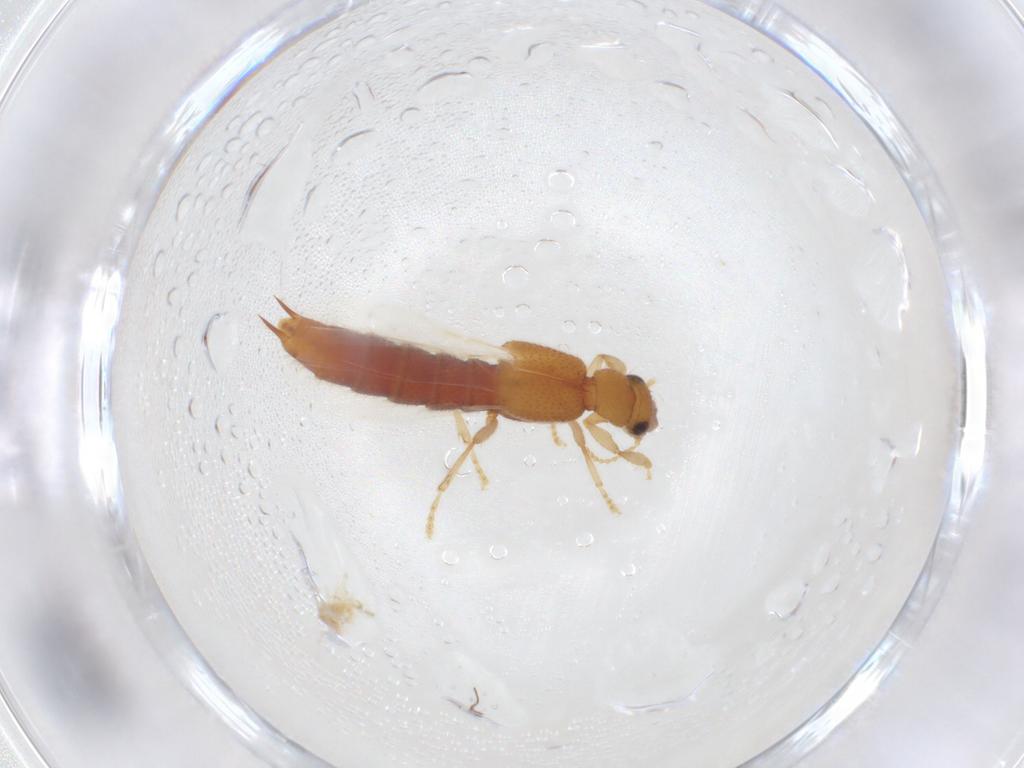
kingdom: Animalia
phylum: Arthropoda
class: Insecta
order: Coleoptera
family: Staphylinidae
